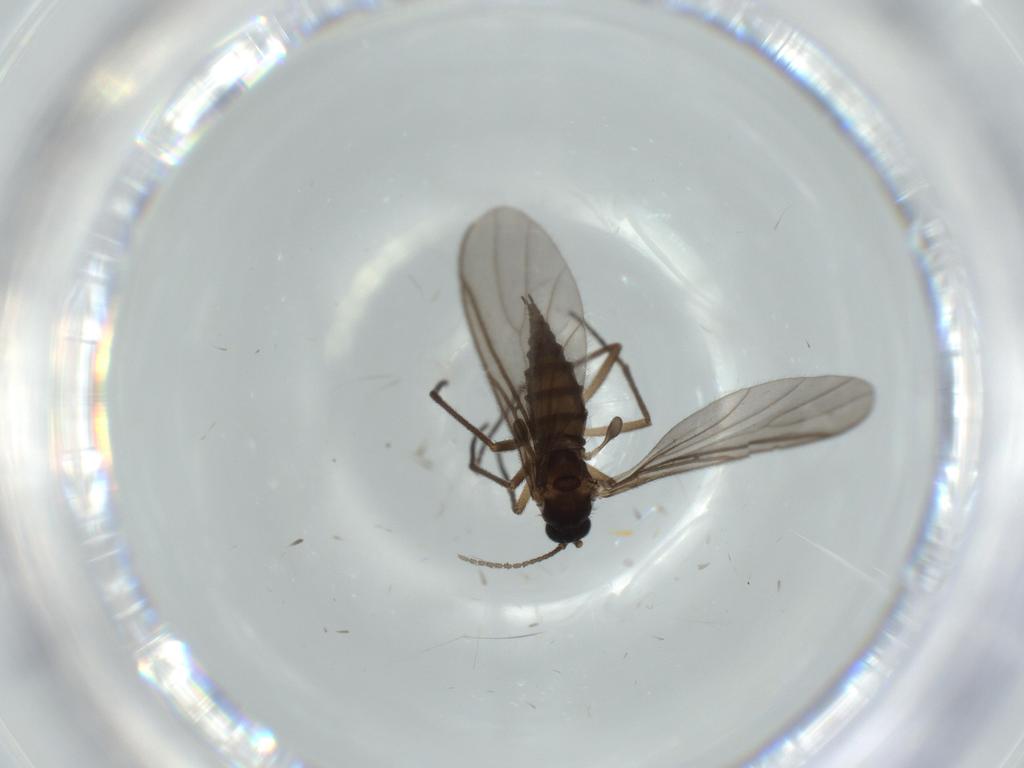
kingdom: Animalia
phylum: Arthropoda
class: Insecta
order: Diptera
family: Sciaridae
